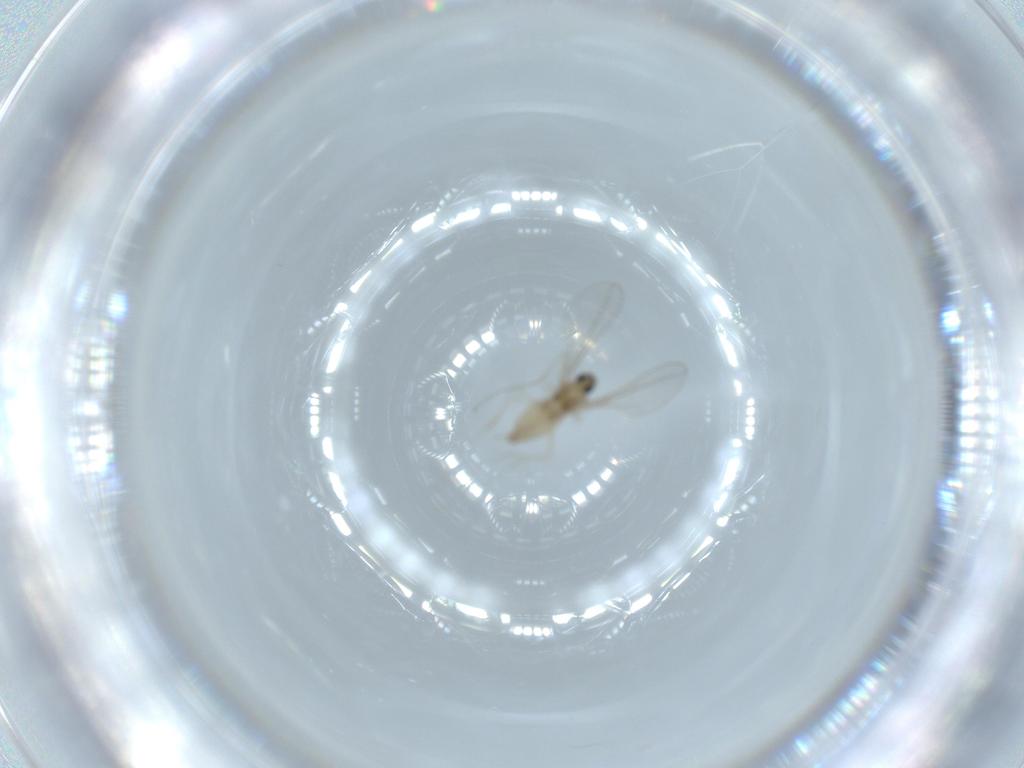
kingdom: Animalia
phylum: Arthropoda
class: Insecta
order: Diptera
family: Cecidomyiidae
